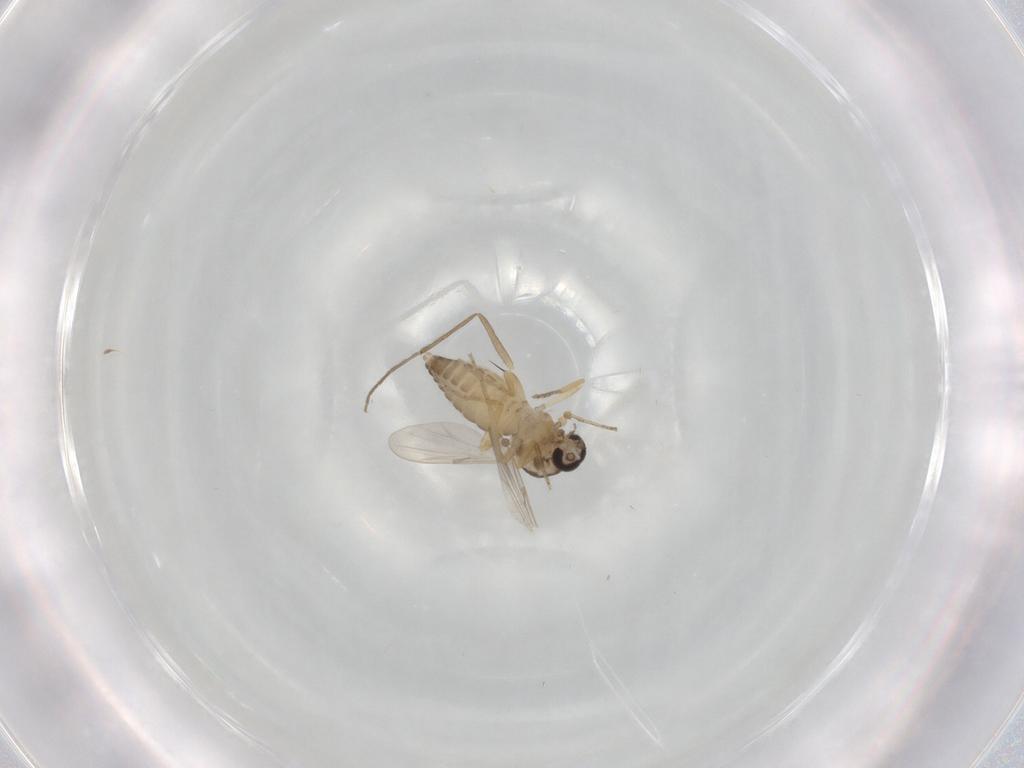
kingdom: Animalia
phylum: Arthropoda
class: Insecta
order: Diptera
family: Ceratopogonidae
